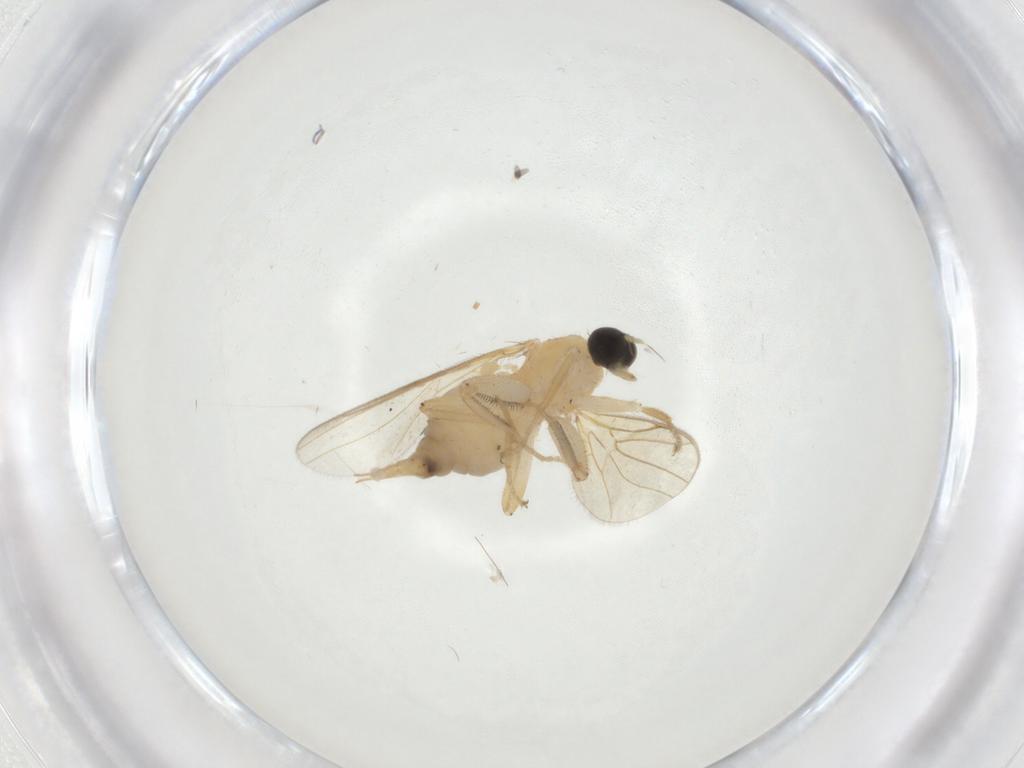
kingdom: Animalia
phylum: Arthropoda
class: Insecta
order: Diptera
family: Sciaridae
